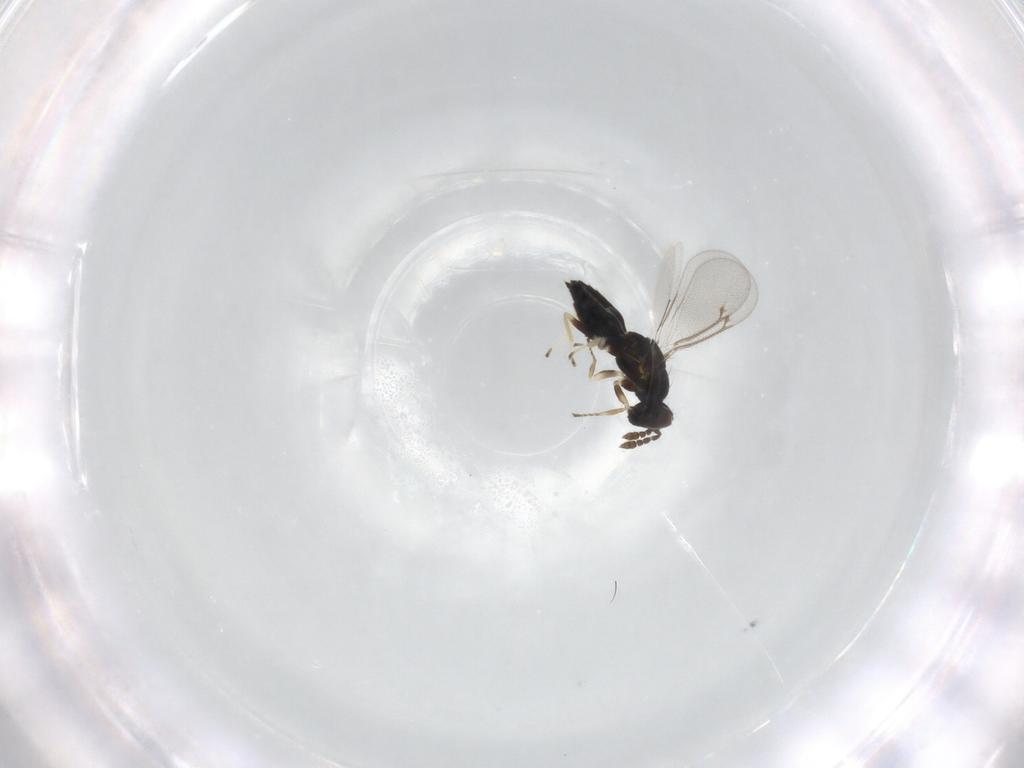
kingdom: Animalia
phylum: Arthropoda
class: Insecta
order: Hymenoptera
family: Eulophidae
